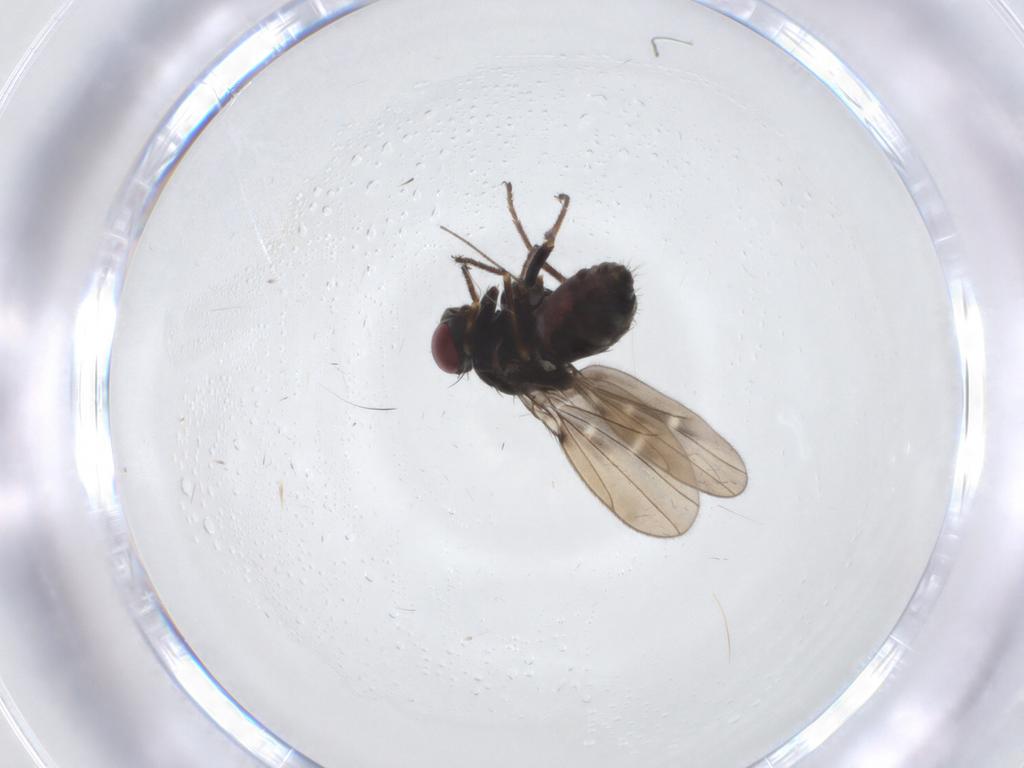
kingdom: Animalia
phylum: Arthropoda
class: Insecta
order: Diptera
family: Ephydridae
